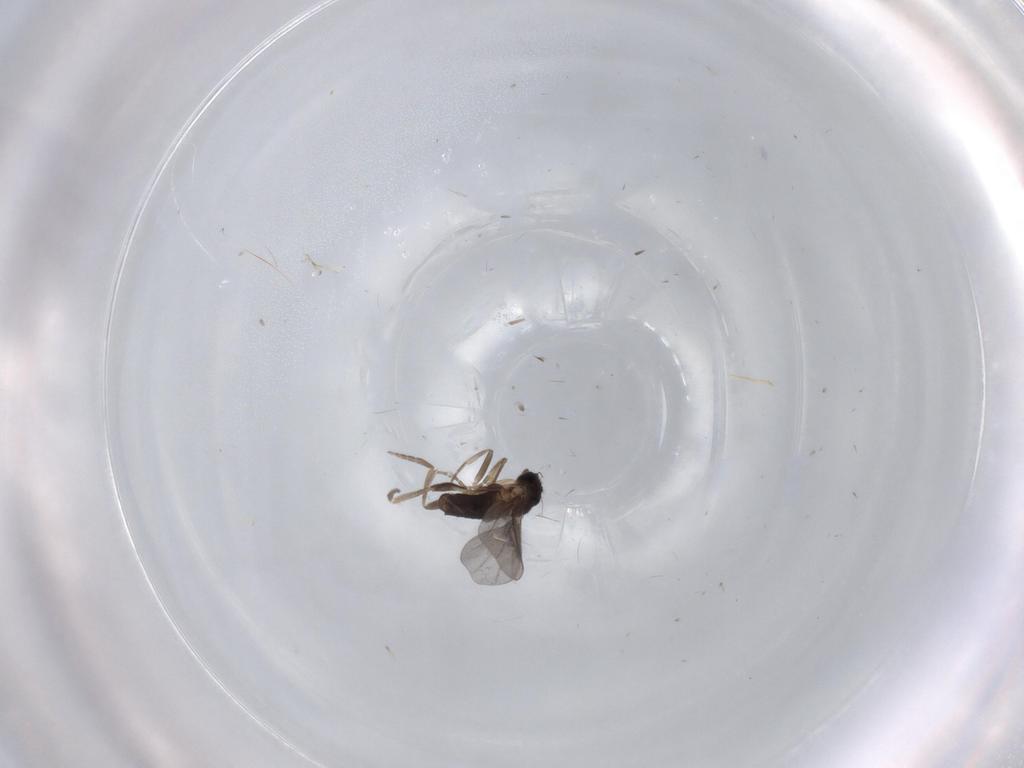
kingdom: Animalia
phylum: Arthropoda
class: Insecta
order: Diptera
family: Cecidomyiidae
